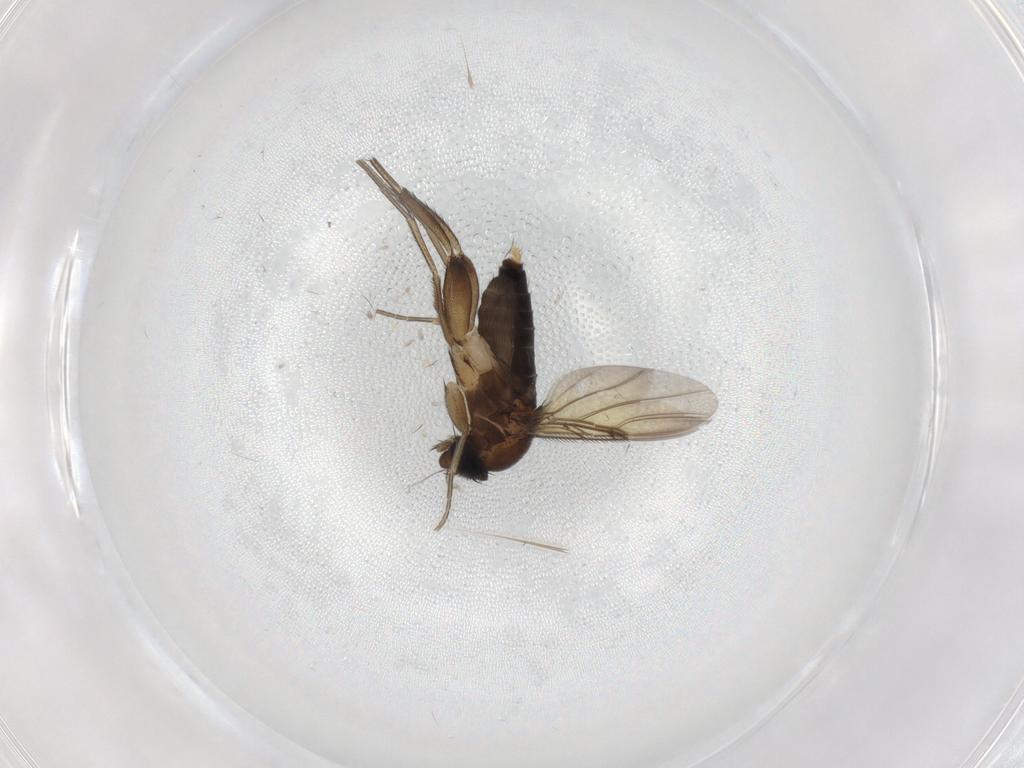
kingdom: Animalia
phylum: Arthropoda
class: Insecta
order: Diptera
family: Phoridae
